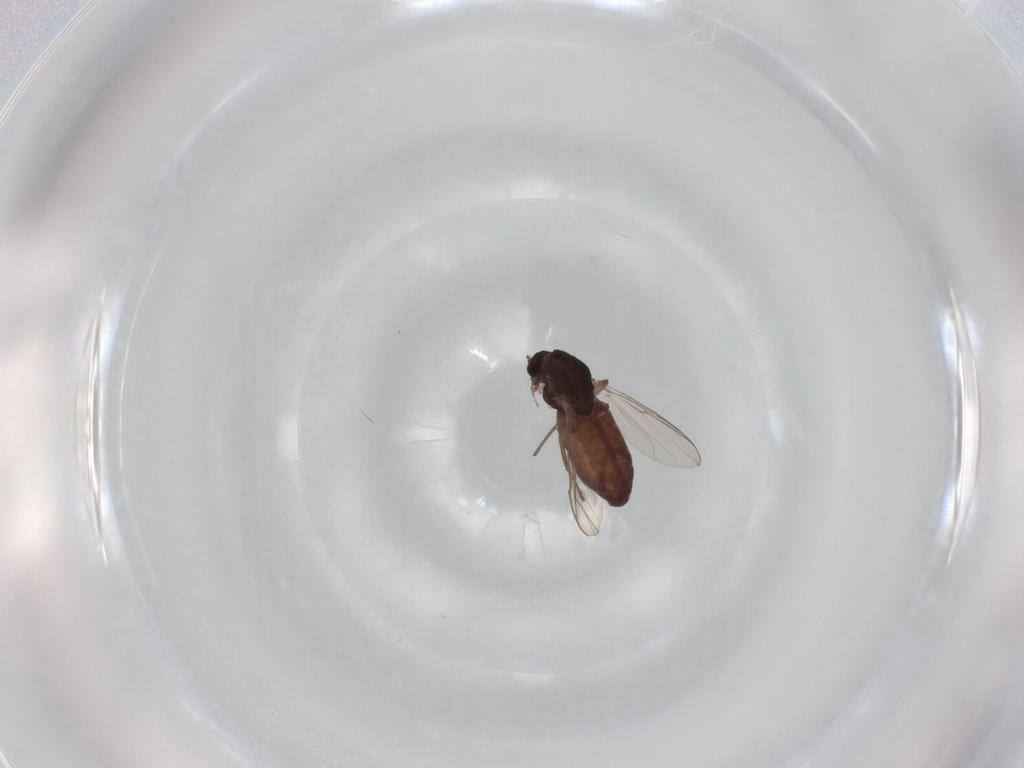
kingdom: Animalia
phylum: Arthropoda
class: Insecta
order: Diptera
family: Chironomidae
